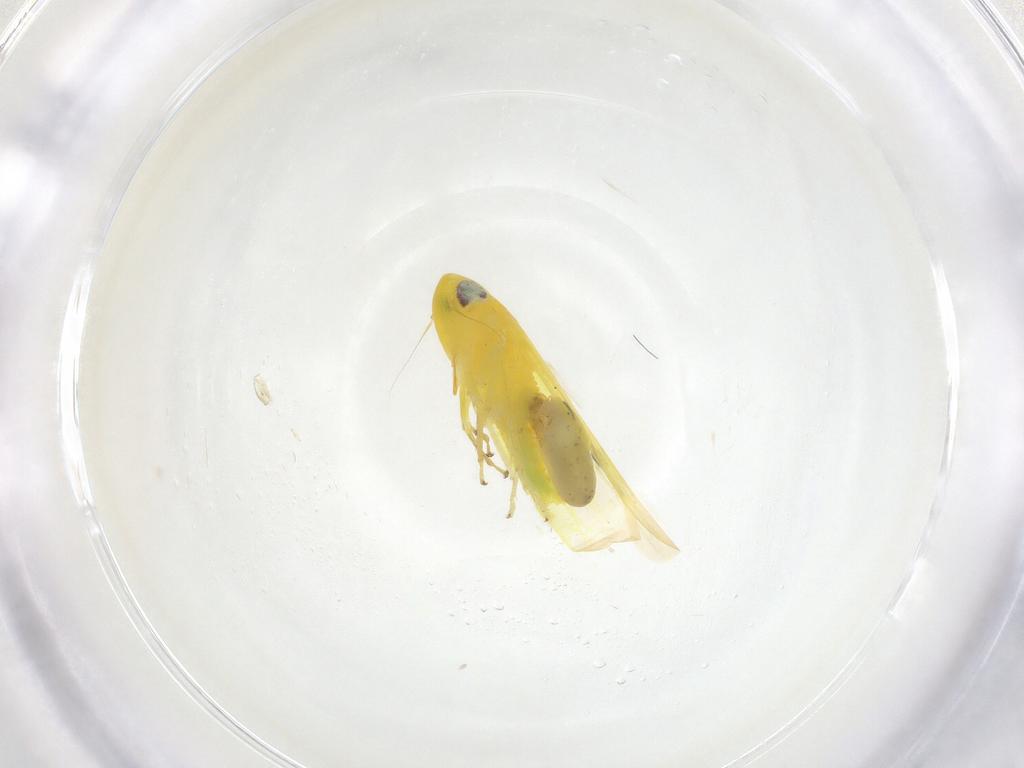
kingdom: Animalia
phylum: Arthropoda
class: Insecta
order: Hemiptera
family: Cicadellidae
